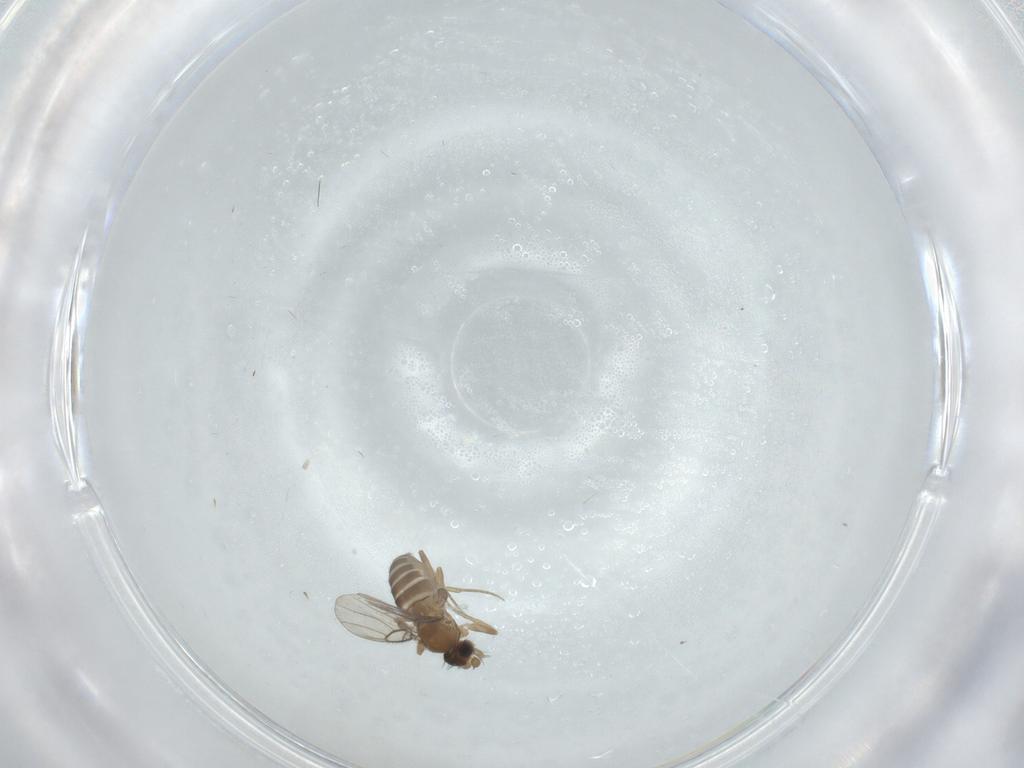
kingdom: Animalia
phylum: Arthropoda
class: Insecta
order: Diptera
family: Phoridae
